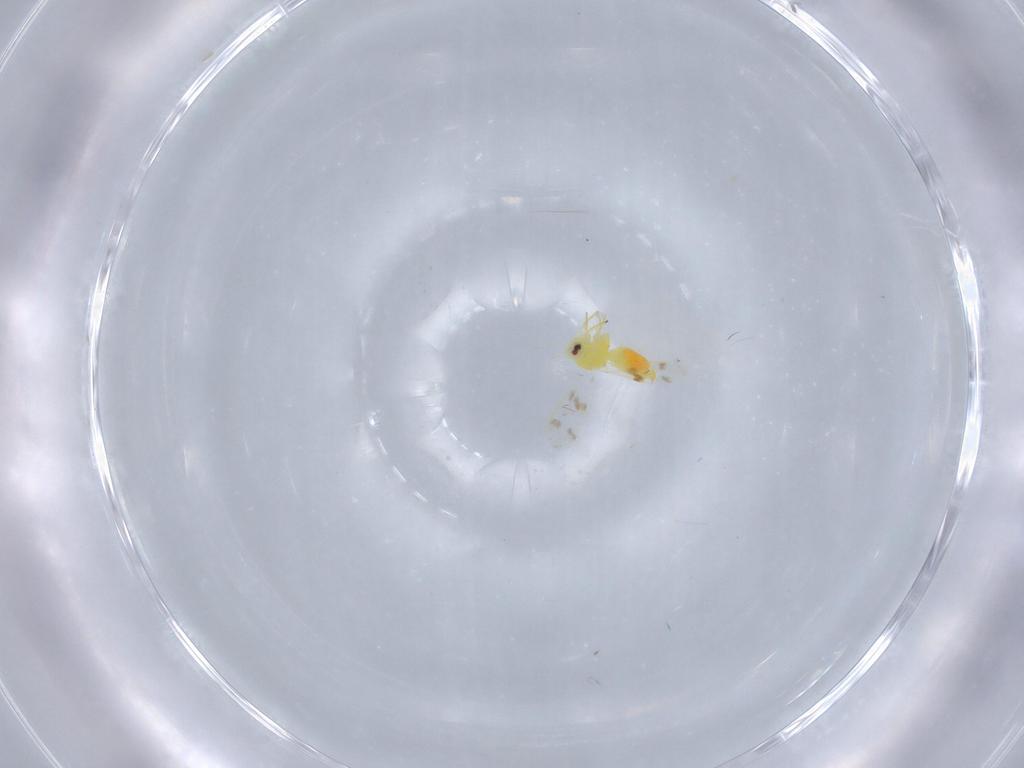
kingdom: Animalia
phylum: Arthropoda
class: Insecta
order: Hemiptera
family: Aleyrodidae
